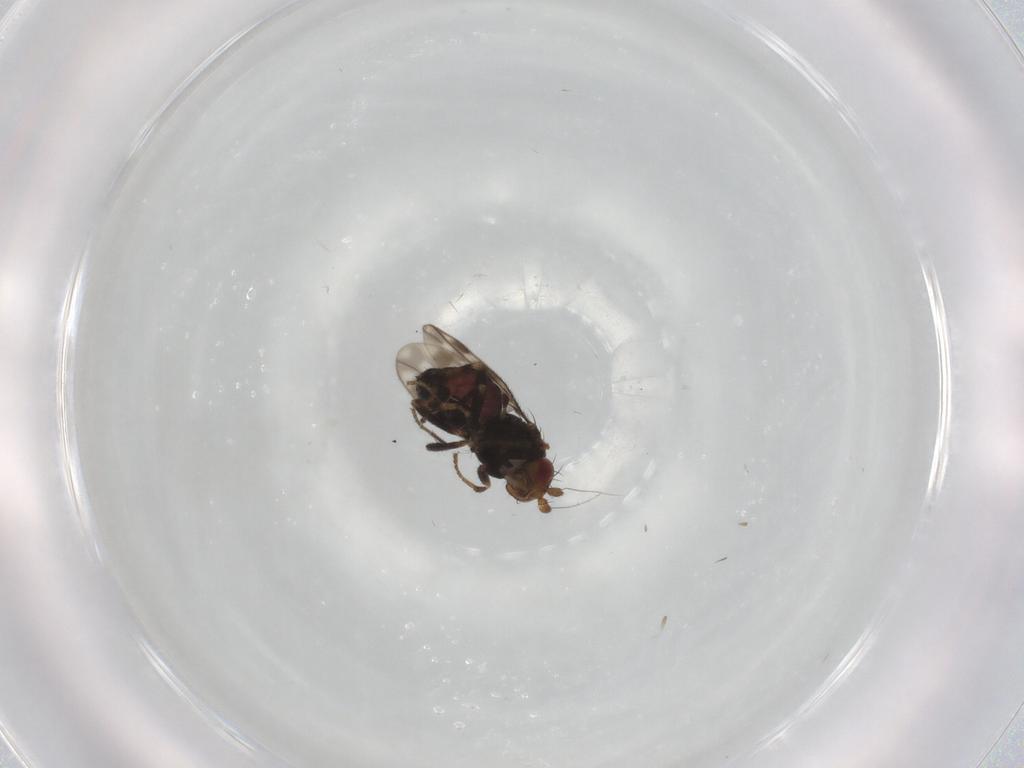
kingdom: Animalia
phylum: Arthropoda
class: Insecta
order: Diptera
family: Sphaeroceridae
